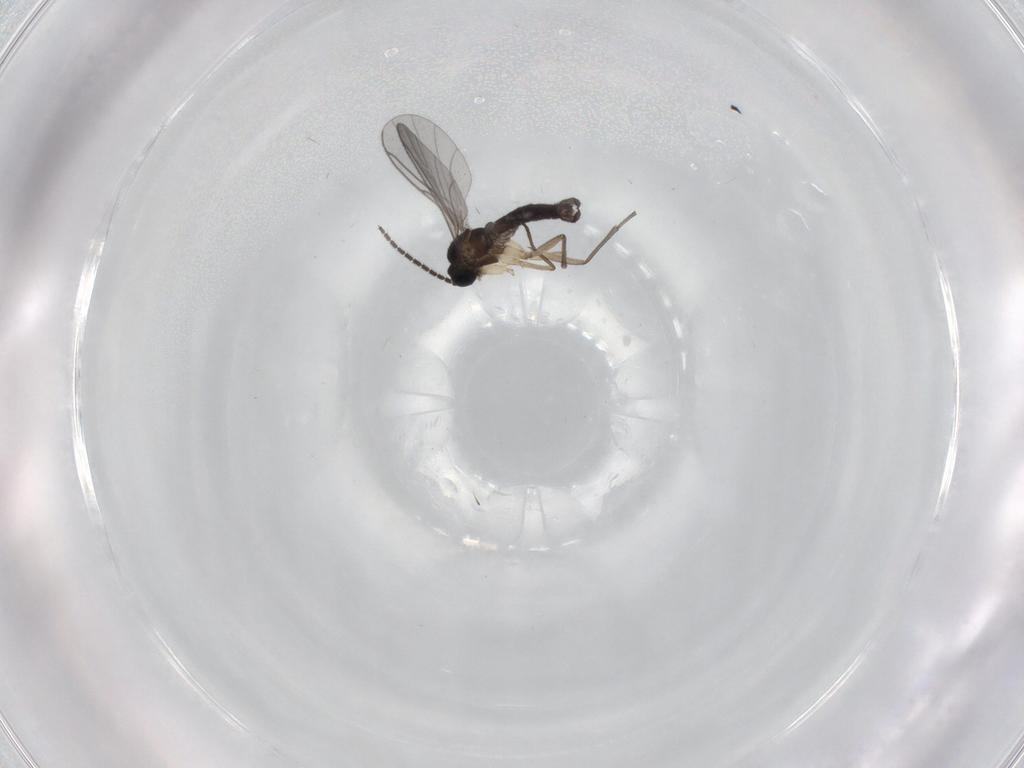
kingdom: Animalia
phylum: Arthropoda
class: Insecta
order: Diptera
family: Sciaridae
